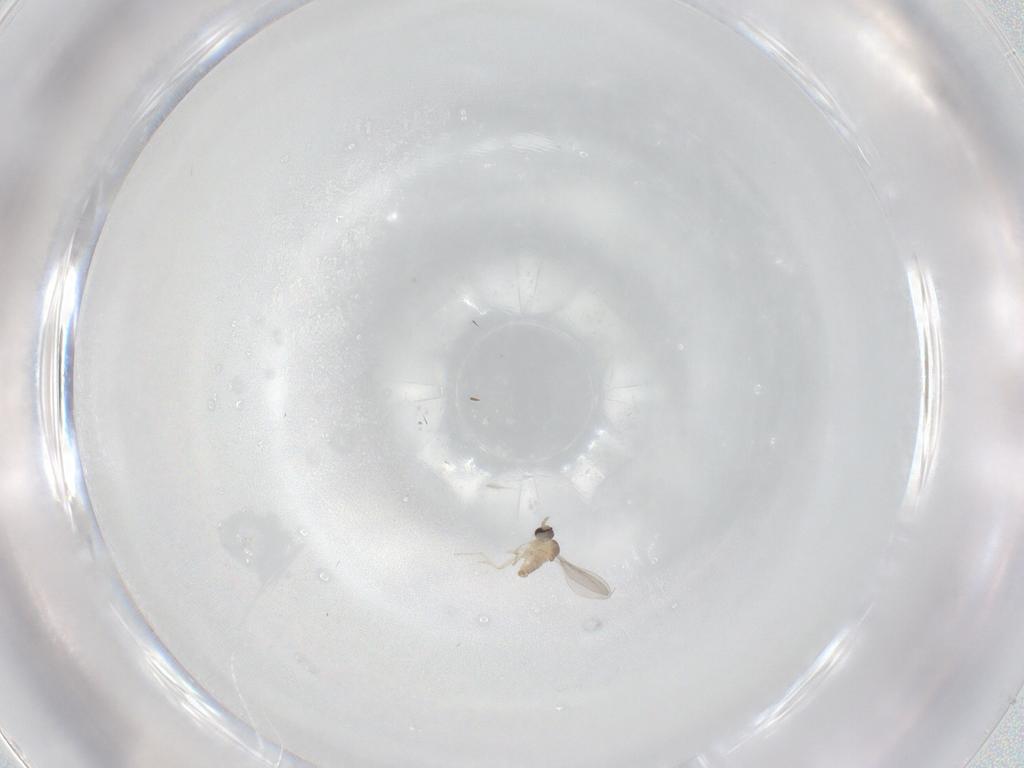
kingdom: Animalia
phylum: Arthropoda
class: Insecta
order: Diptera
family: Cecidomyiidae
